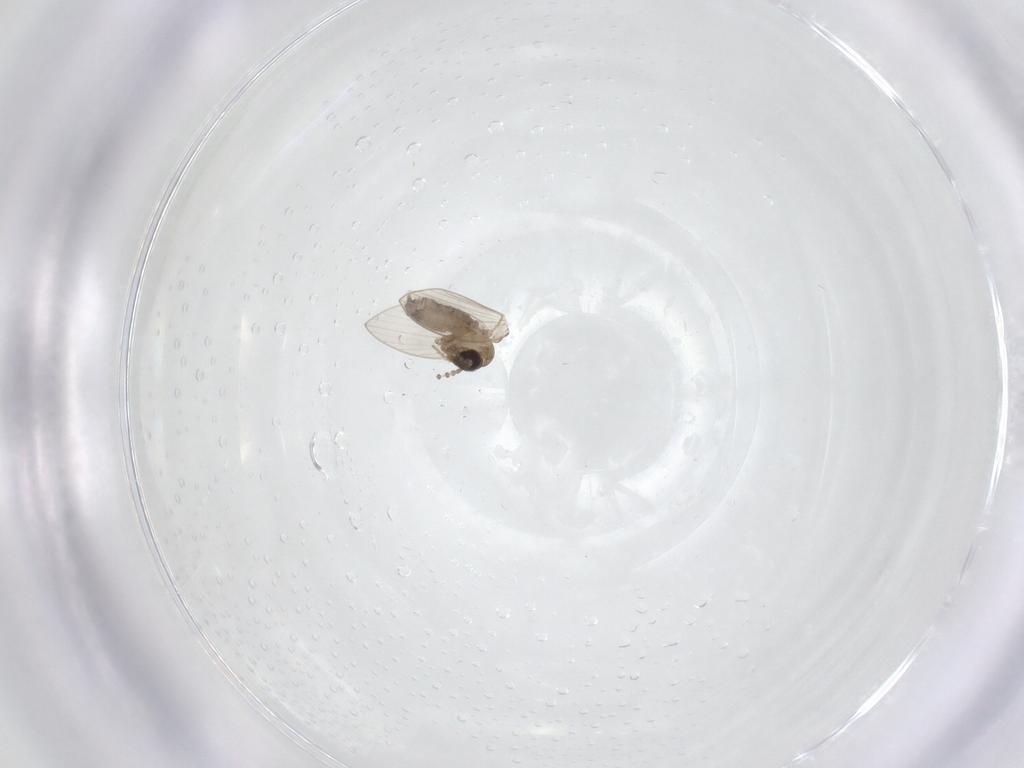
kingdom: Animalia
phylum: Arthropoda
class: Insecta
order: Diptera
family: Psychodidae
